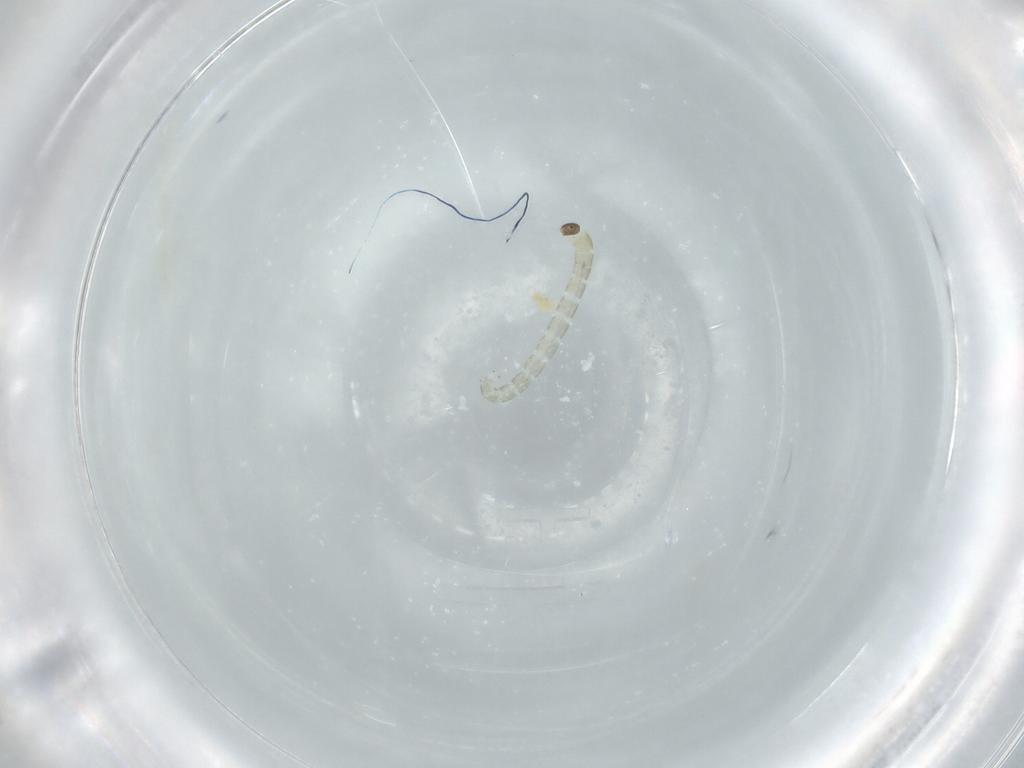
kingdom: Animalia
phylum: Arthropoda
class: Insecta
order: Diptera
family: Chironomidae
